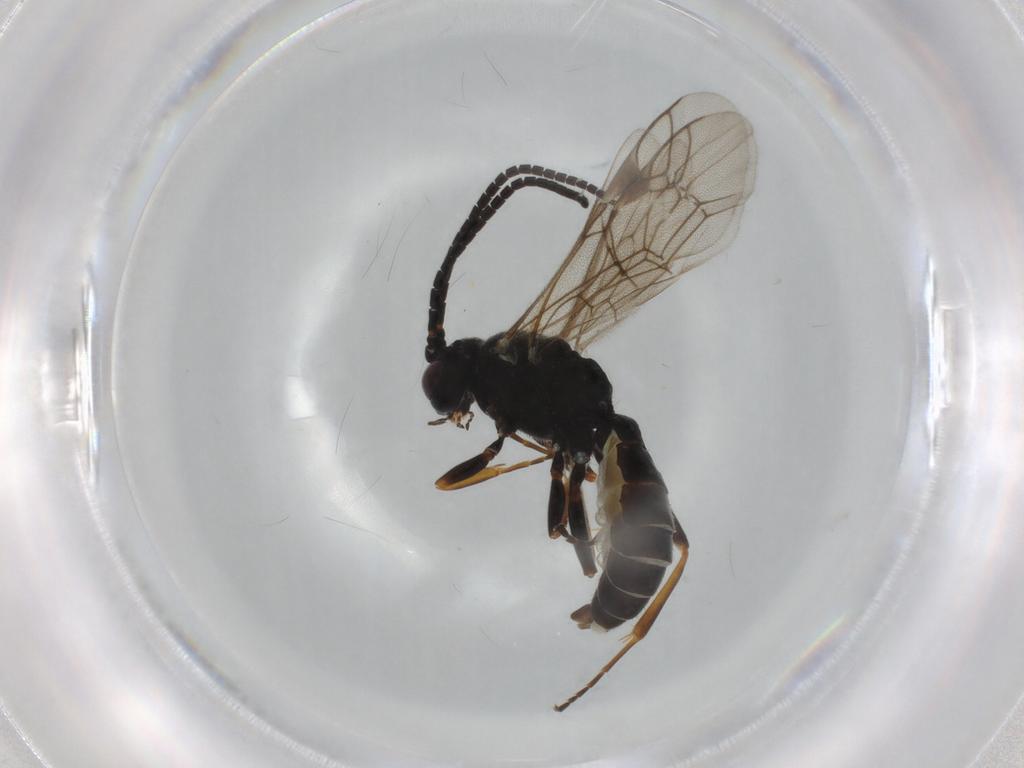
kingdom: Animalia
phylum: Arthropoda
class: Insecta
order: Hymenoptera
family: Ichneumonidae
